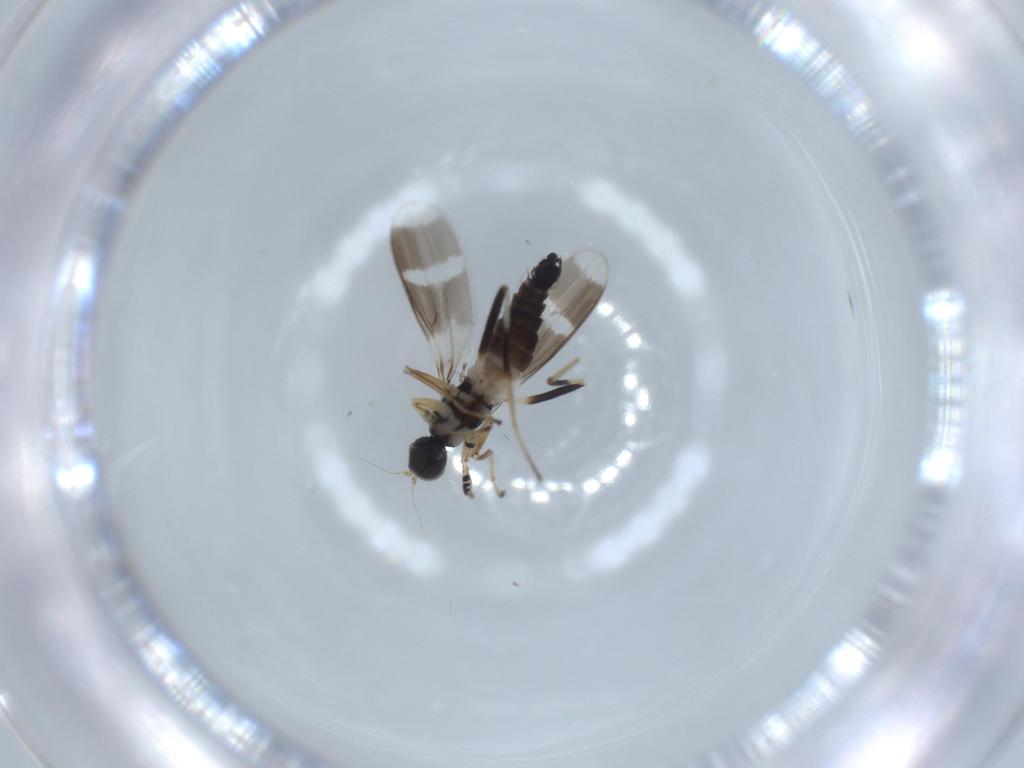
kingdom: Animalia
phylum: Arthropoda
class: Insecta
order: Diptera
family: Hybotidae
